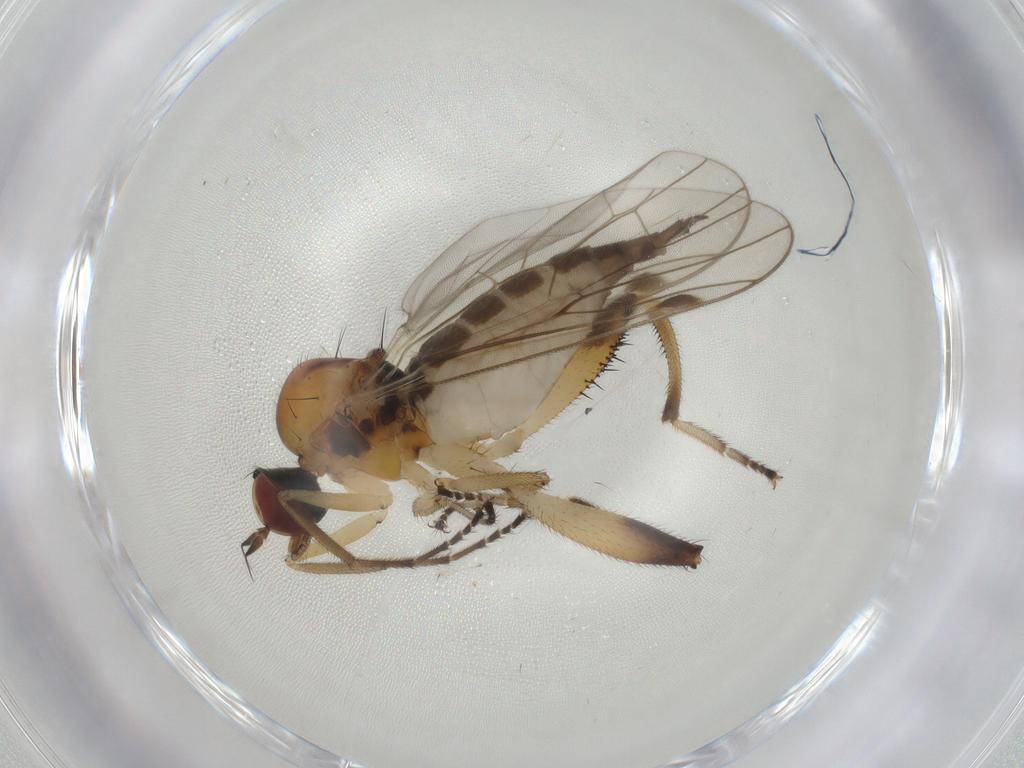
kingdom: Animalia
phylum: Arthropoda
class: Insecta
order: Diptera
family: Hybotidae
